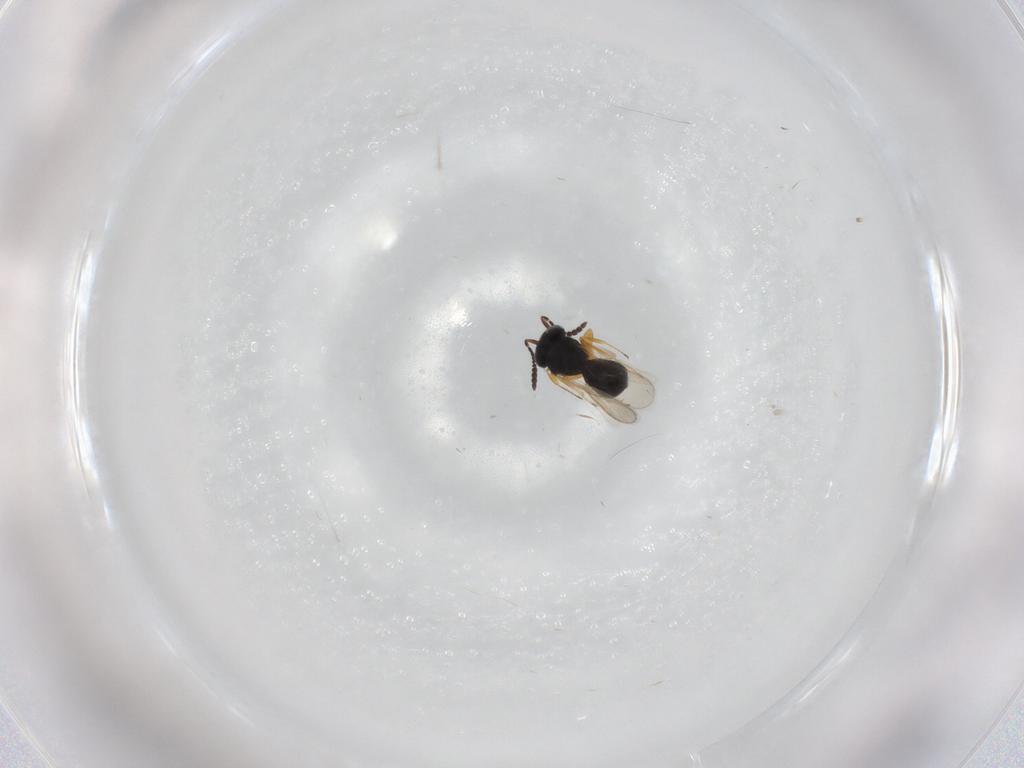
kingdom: Animalia
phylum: Arthropoda
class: Insecta
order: Hymenoptera
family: Scelionidae
